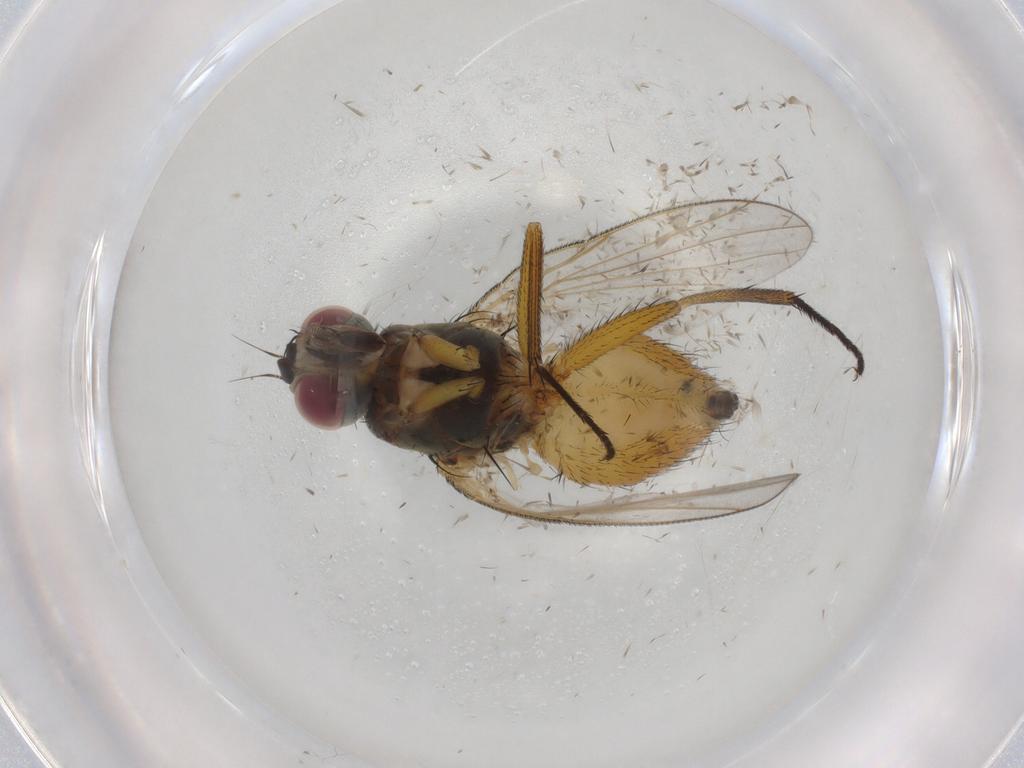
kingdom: Animalia
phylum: Arthropoda
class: Insecta
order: Diptera
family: Muscidae
